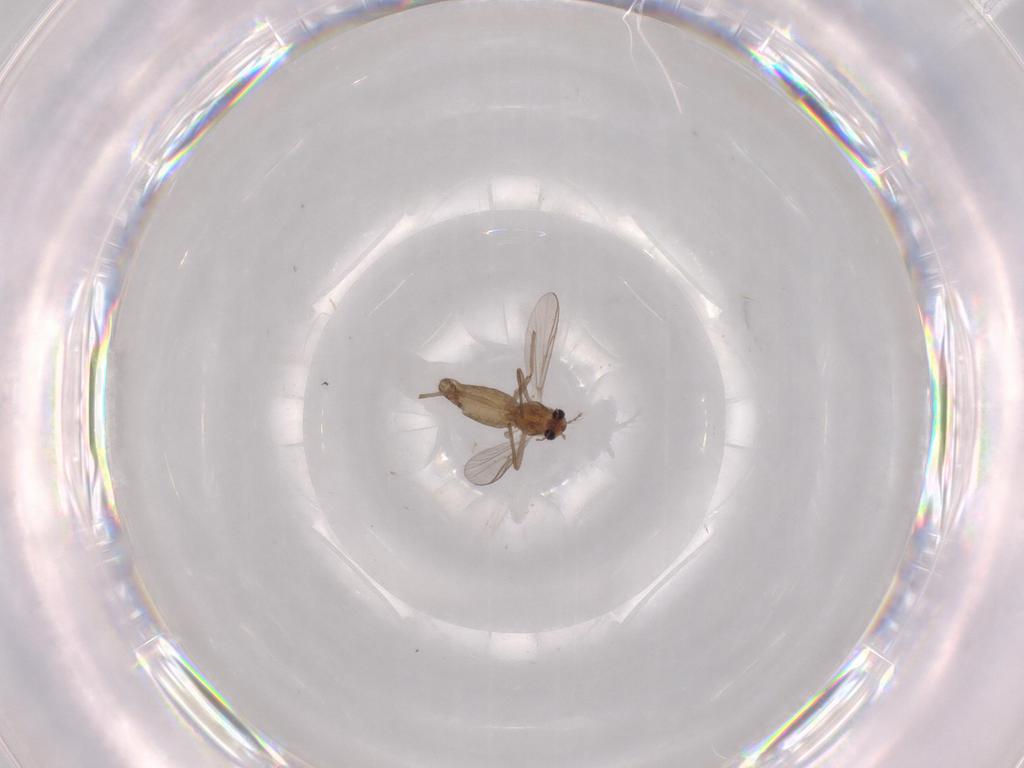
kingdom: Animalia
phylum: Arthropoda
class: Insecta
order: Diptera
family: Chironomidae
